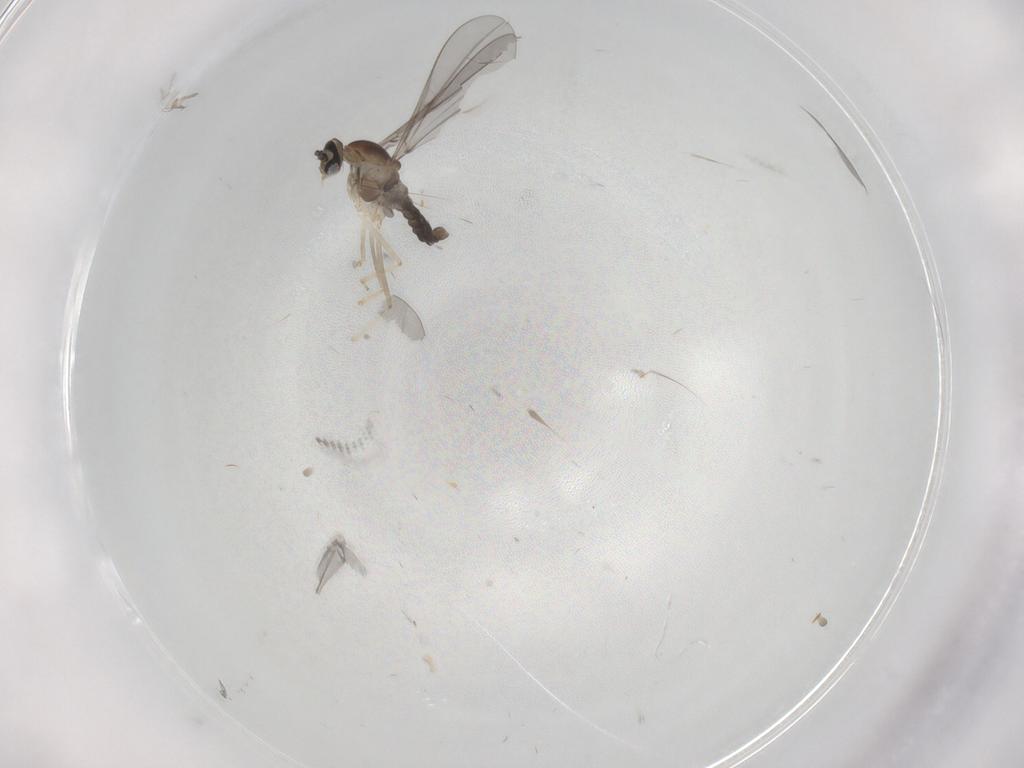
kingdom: Animalia
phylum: Arthropoda
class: Insecta
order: Diptera
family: Cecidomyiidae
